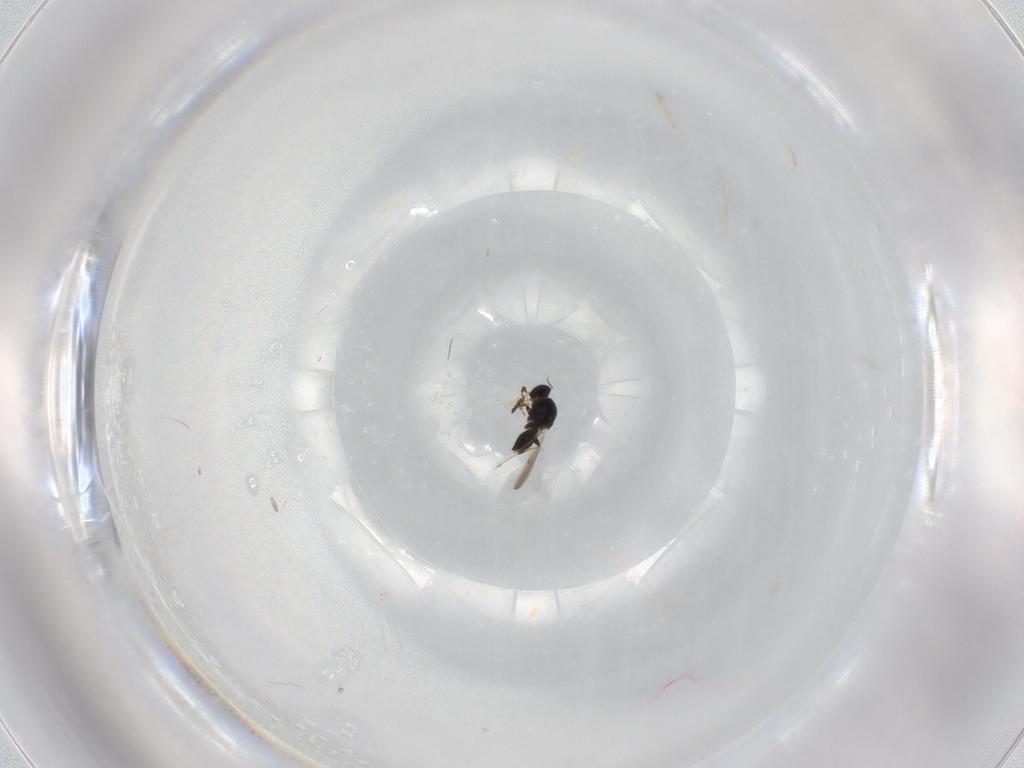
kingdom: Animalia
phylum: Arthropoda
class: Insecta
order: Hymenoptera
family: Platygastridae
